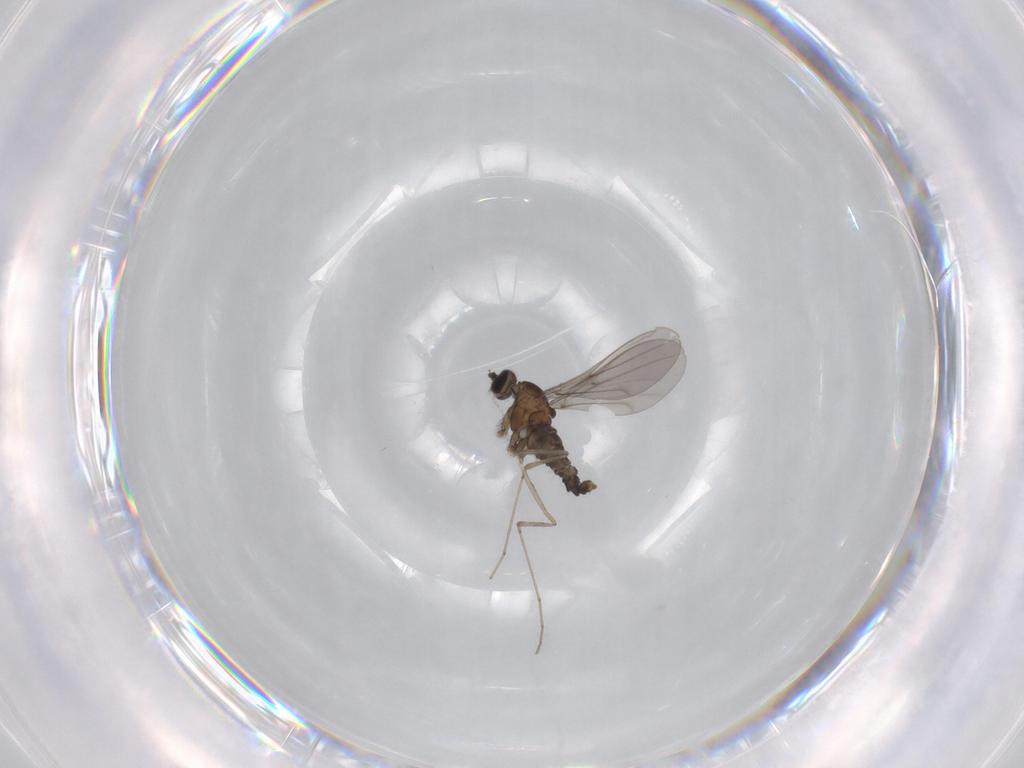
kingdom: Animalia
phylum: Arthropoda
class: Insecta
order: Diptera
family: Cecidomyiidae
